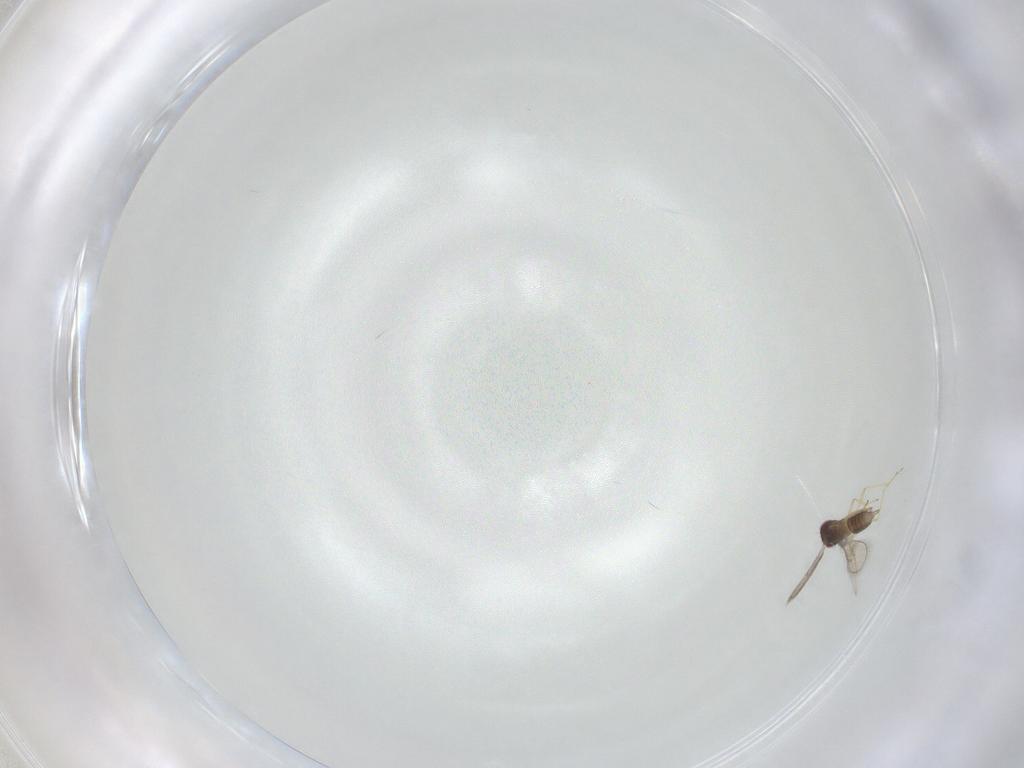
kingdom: Animalia
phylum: Arthropoda
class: Insecta
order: Hymenoptera
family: Eulophidae
